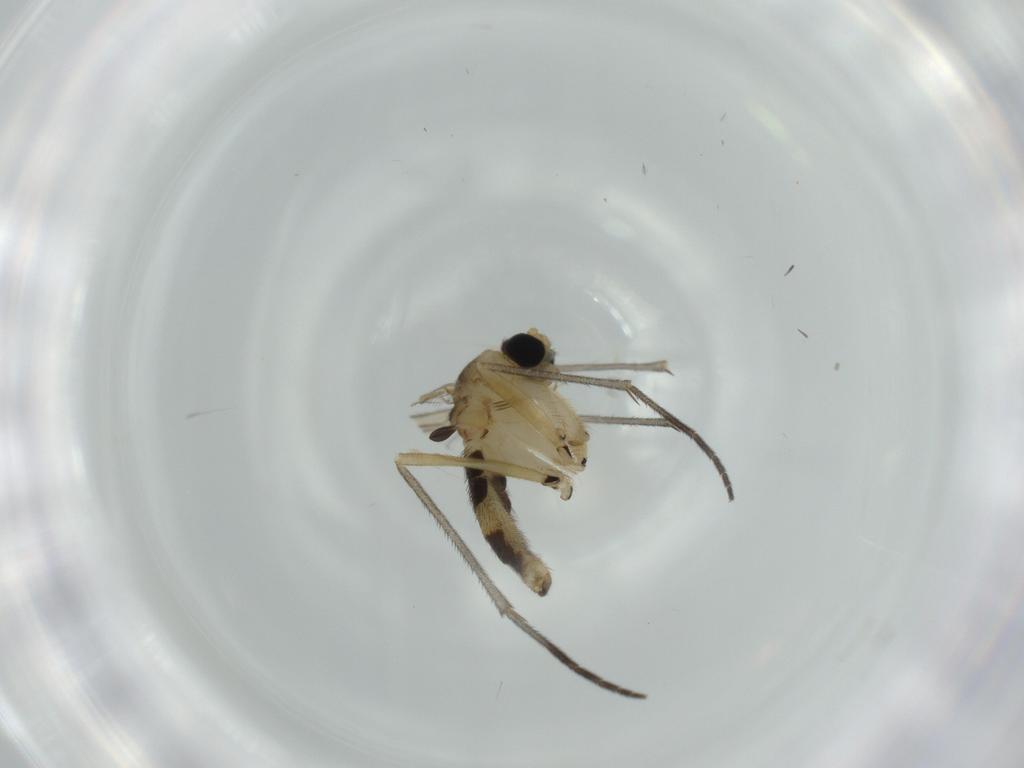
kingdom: Animalia
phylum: Arthropoda
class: Insecta
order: Diptera
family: Sciaridae
